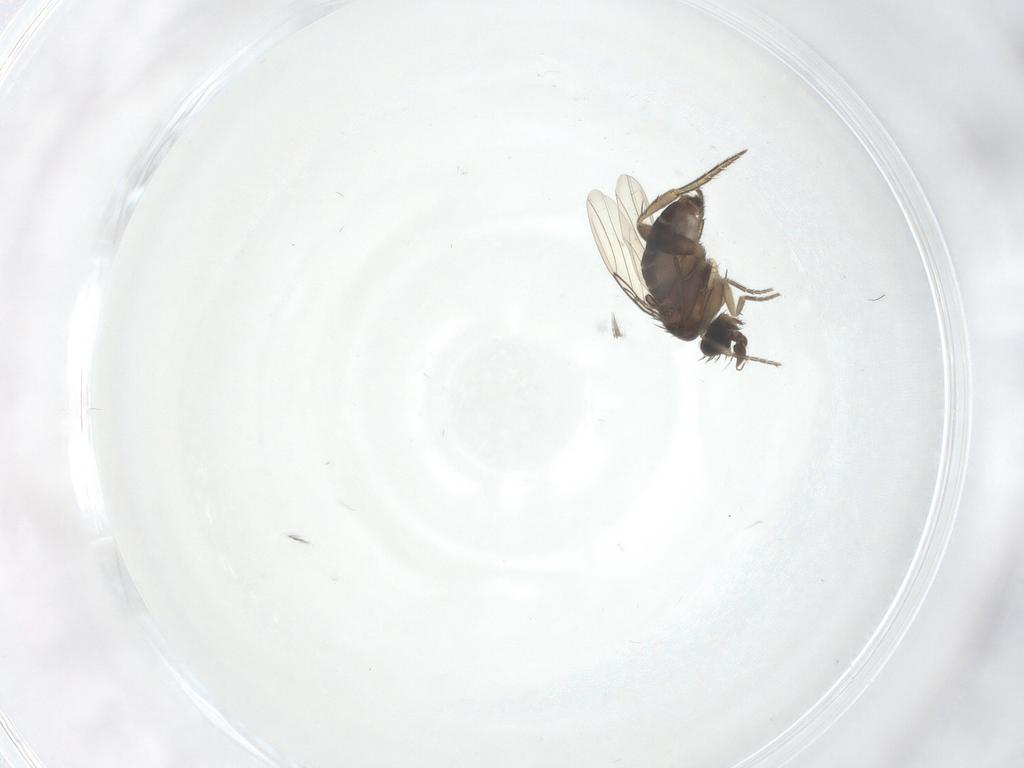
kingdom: Animalia
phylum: Arthropoda
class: Insecta
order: Diptera
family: Phoridae
